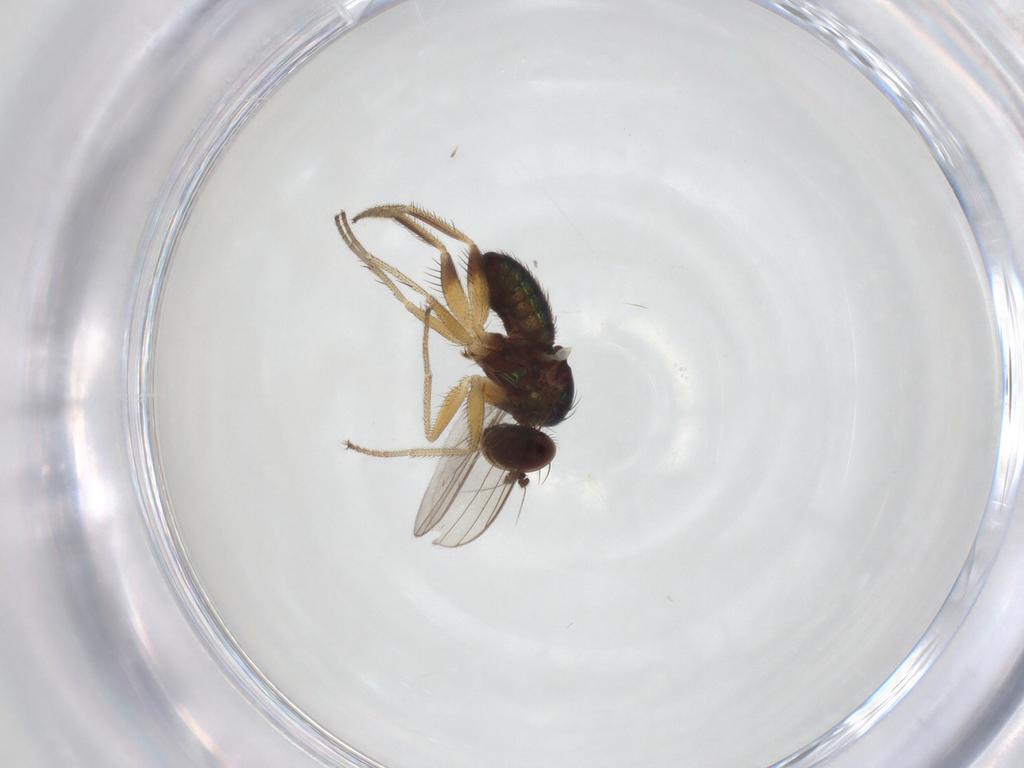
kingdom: Animalia
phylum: Arthropoda
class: Insecta
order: Diptera
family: Dolichopodidae
